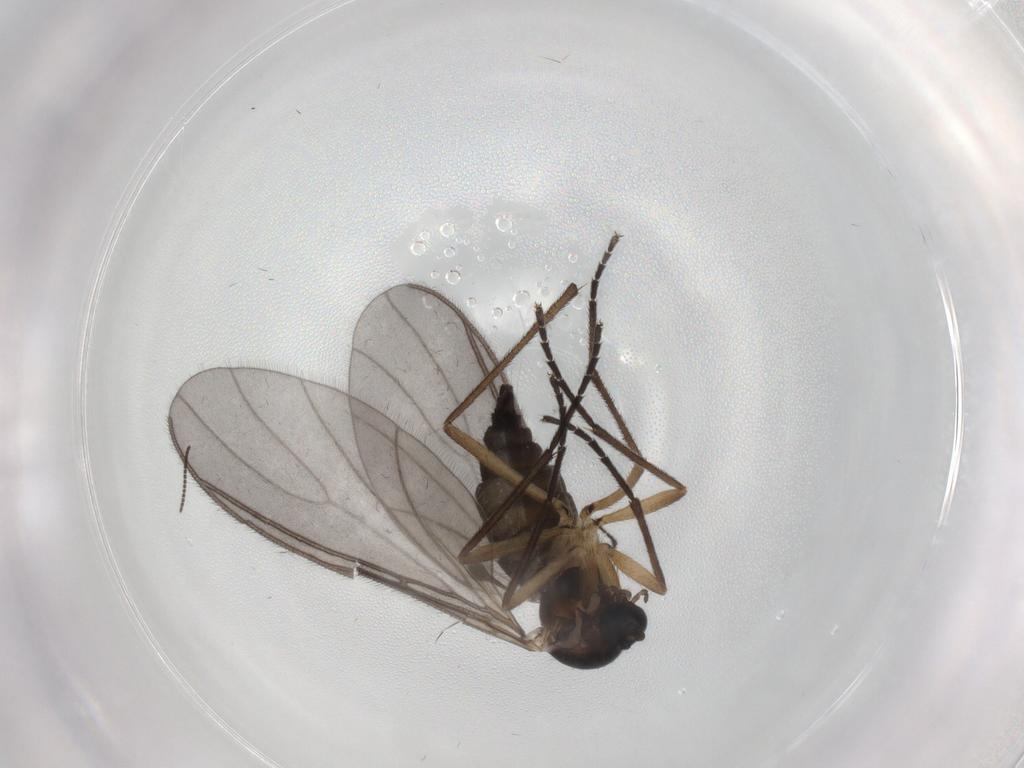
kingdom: Animalia
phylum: Arthropoda
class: Insecta
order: Diptera
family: Sciaridae
